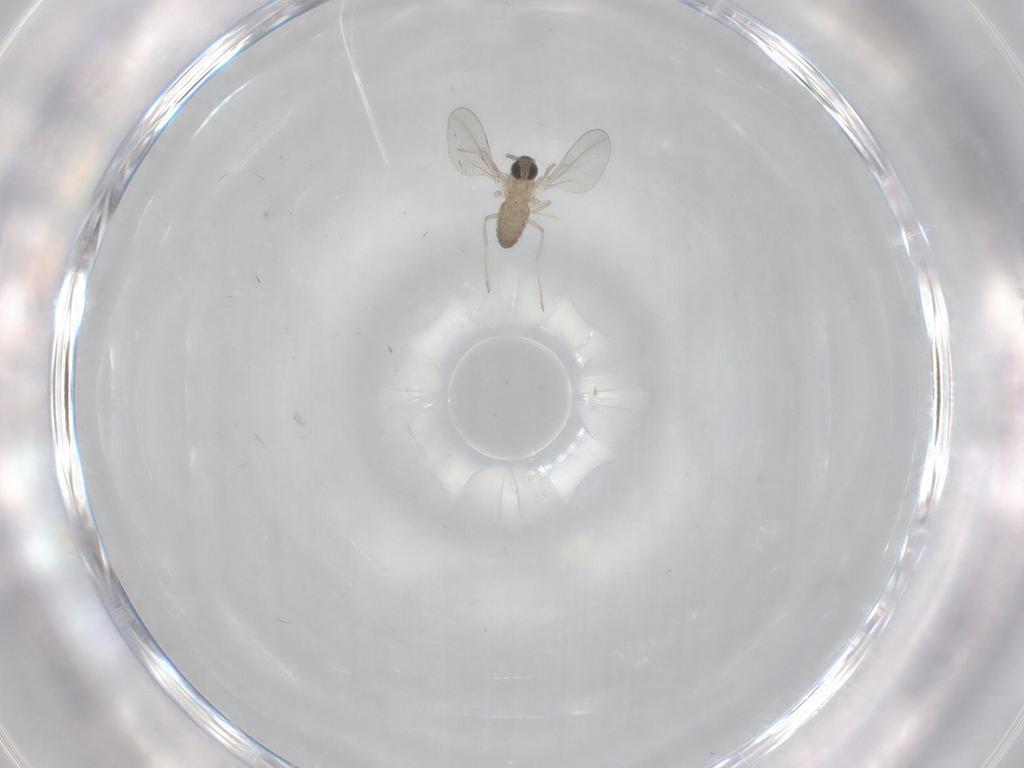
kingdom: Animalia
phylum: Arthropoda
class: Insecta
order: Diptera
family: Cecidomyiidae
